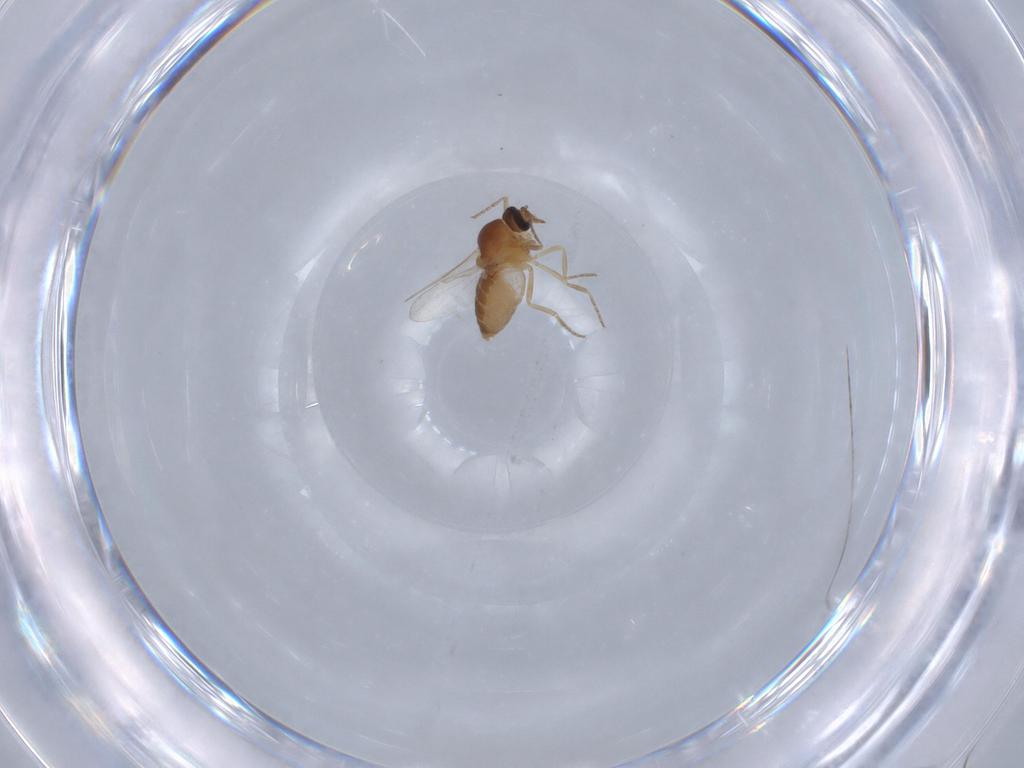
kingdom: Animalia
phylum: Arthropoda
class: Insecta
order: Diptera
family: Ceratopogonidae
